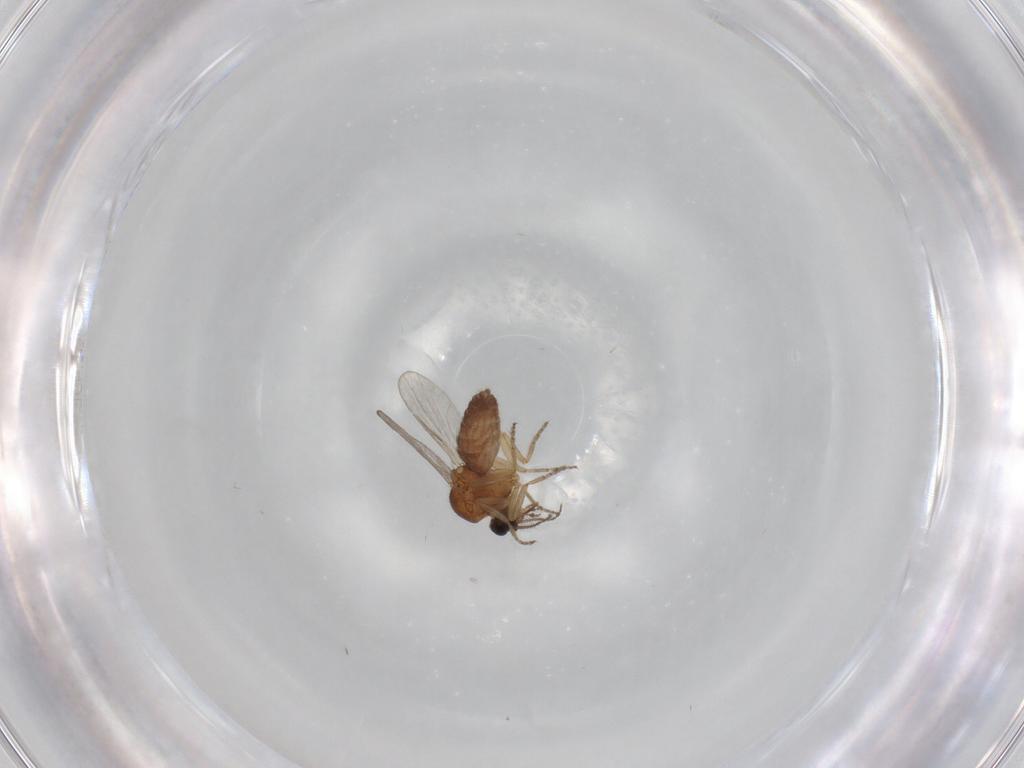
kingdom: Animalia
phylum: Arthropoda
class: Insecta
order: Diptera
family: Ceratopogonidae
